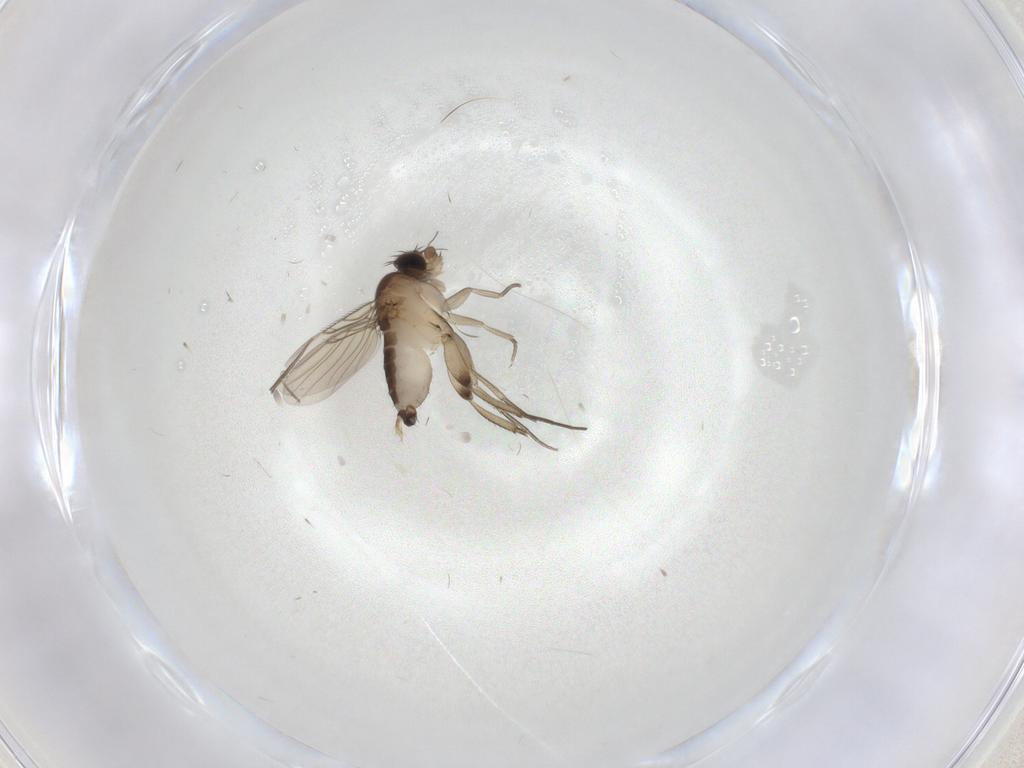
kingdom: Animalia
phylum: Arthropoda
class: Insecta
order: Diptera
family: Phoridae
